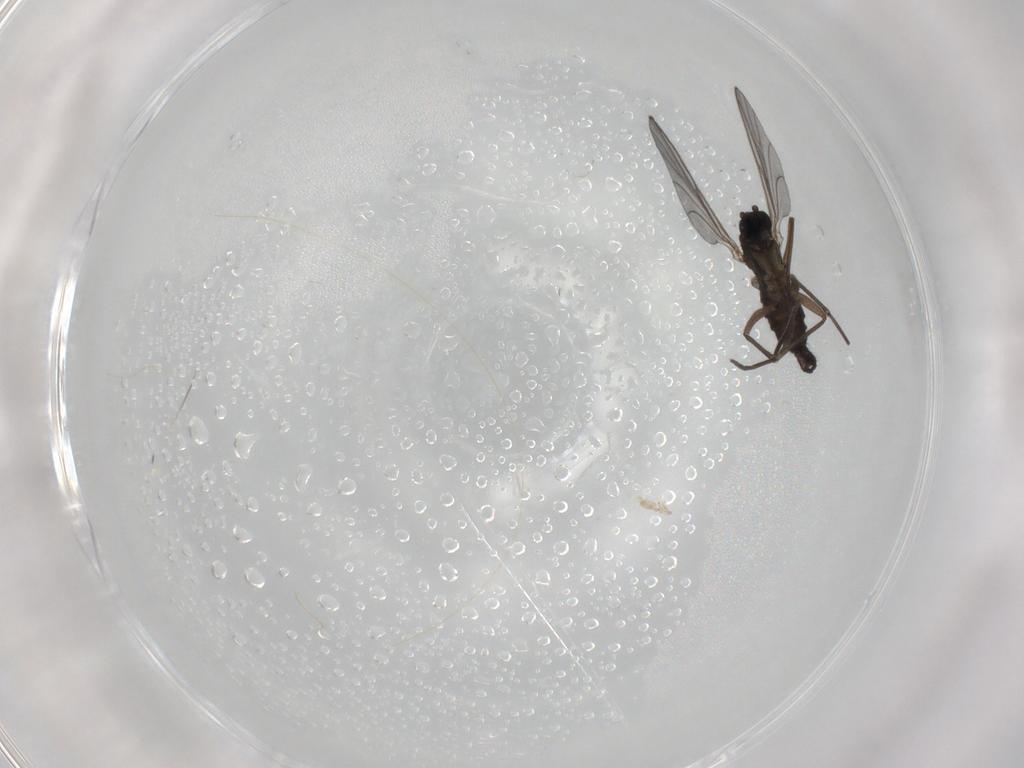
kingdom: Animalia
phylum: Arthropoda
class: Insecta
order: Diptera
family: Sciaridae
